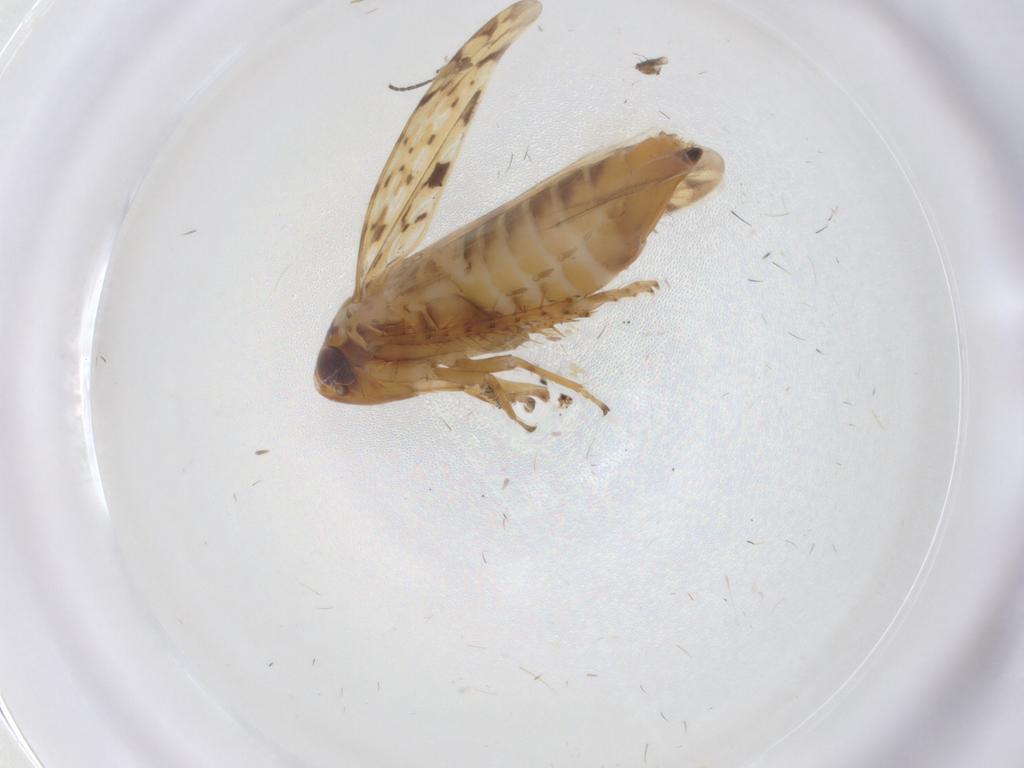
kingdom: Animalia
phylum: Arthropoda
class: Insecta
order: Hemiptera
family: Cicadellidae
